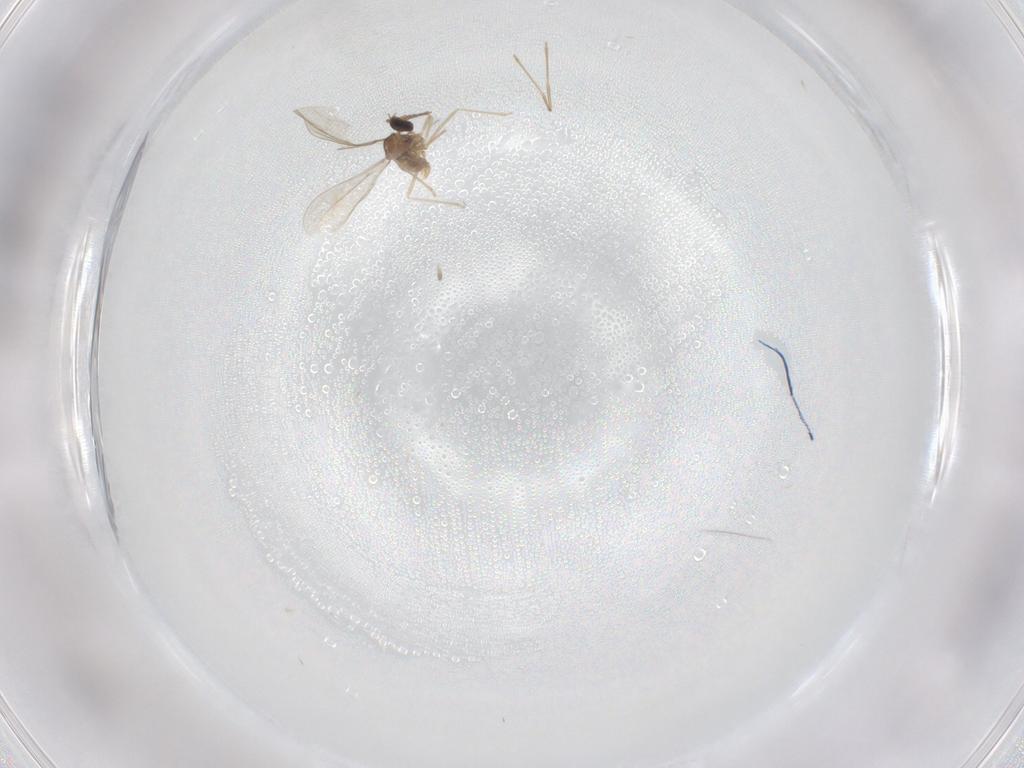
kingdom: Animalia
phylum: Arthropoda
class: Insecta
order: Diptera
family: Cecidomyiidae
